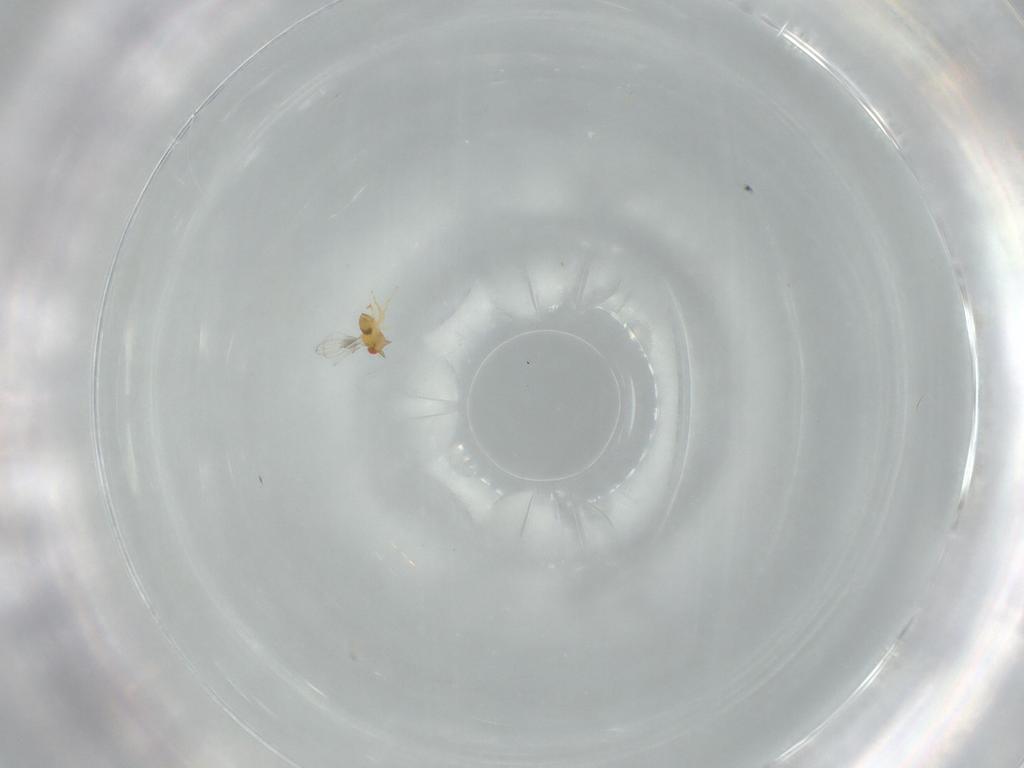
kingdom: Animalia
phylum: Arthropoda
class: Insecta
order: Hymenoptera
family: Trichogrammatidae
